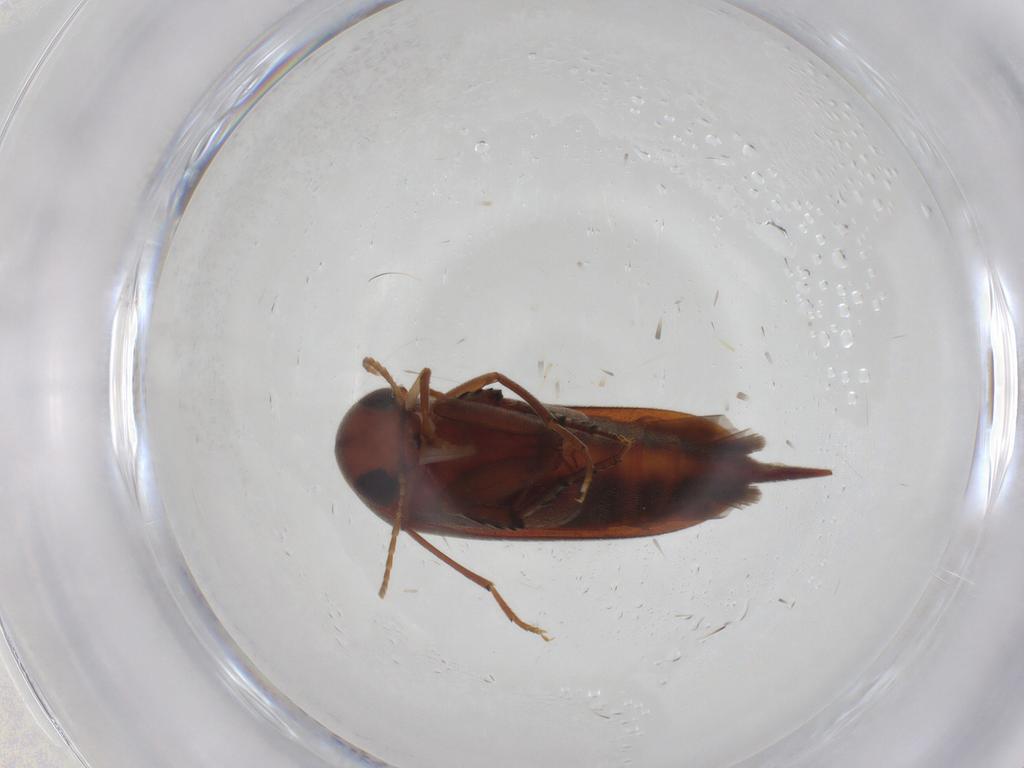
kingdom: Animalia
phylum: Arthropoda
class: Insecta
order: Coleoptera
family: Mordellidae
